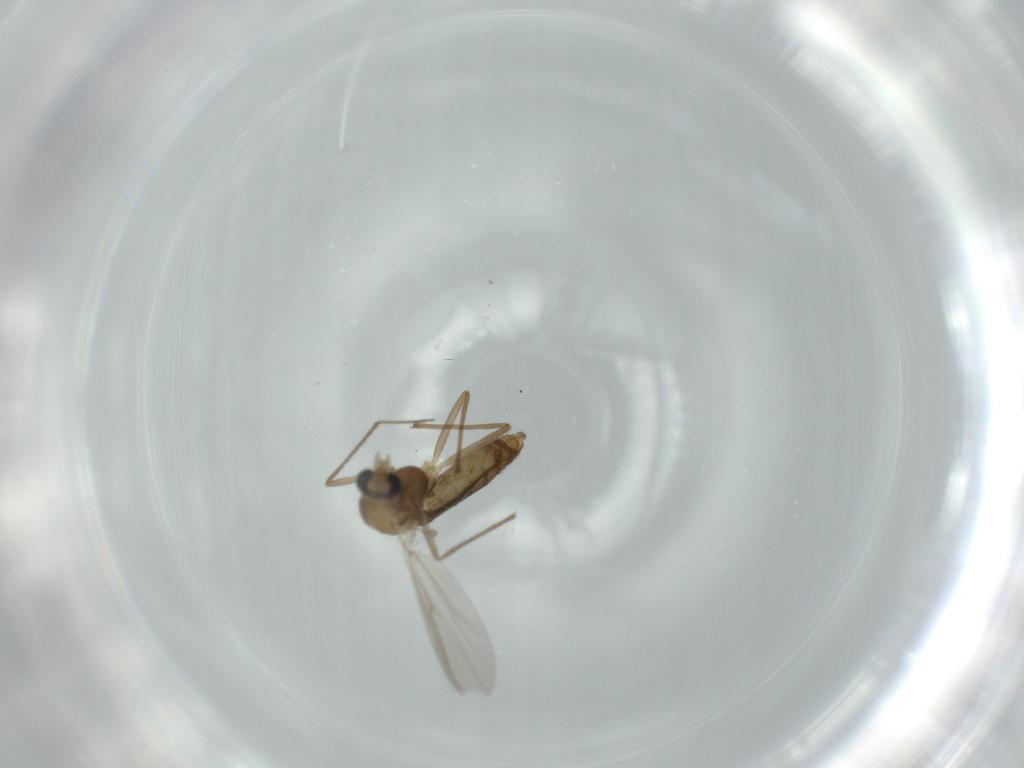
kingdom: Animalia
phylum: Arthropoda
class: Insecta
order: Diptera
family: Chironomidae
